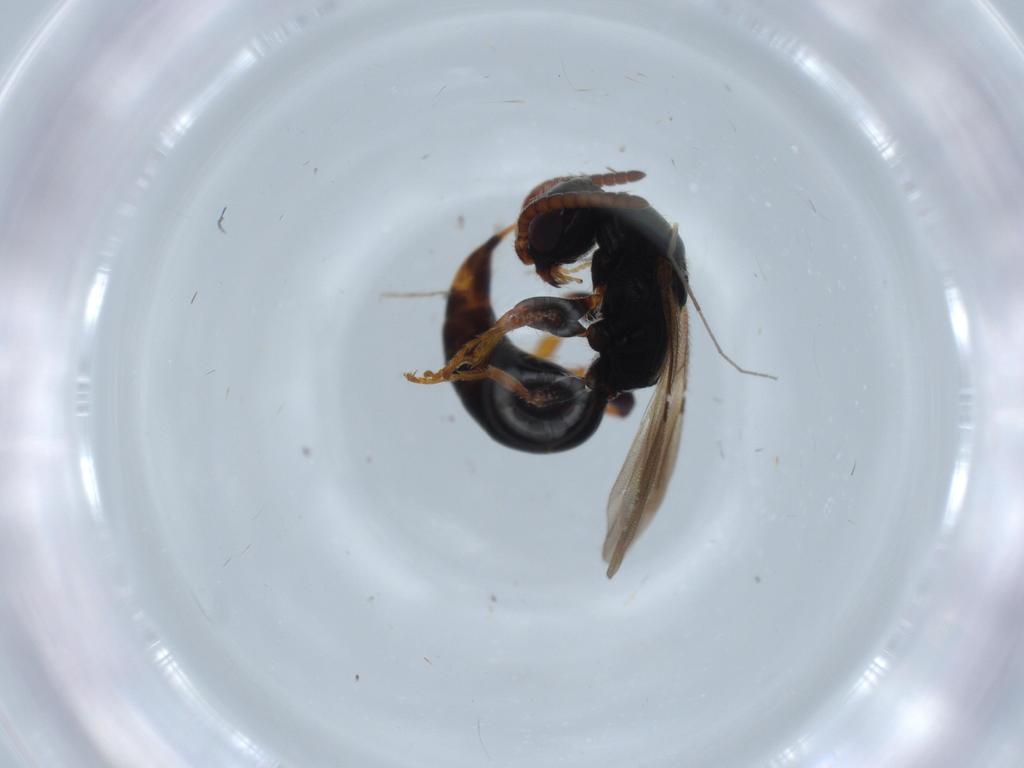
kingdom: Animalia
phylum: Arthropoda
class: Insecta
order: Hymenoptera
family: Bethylidae
